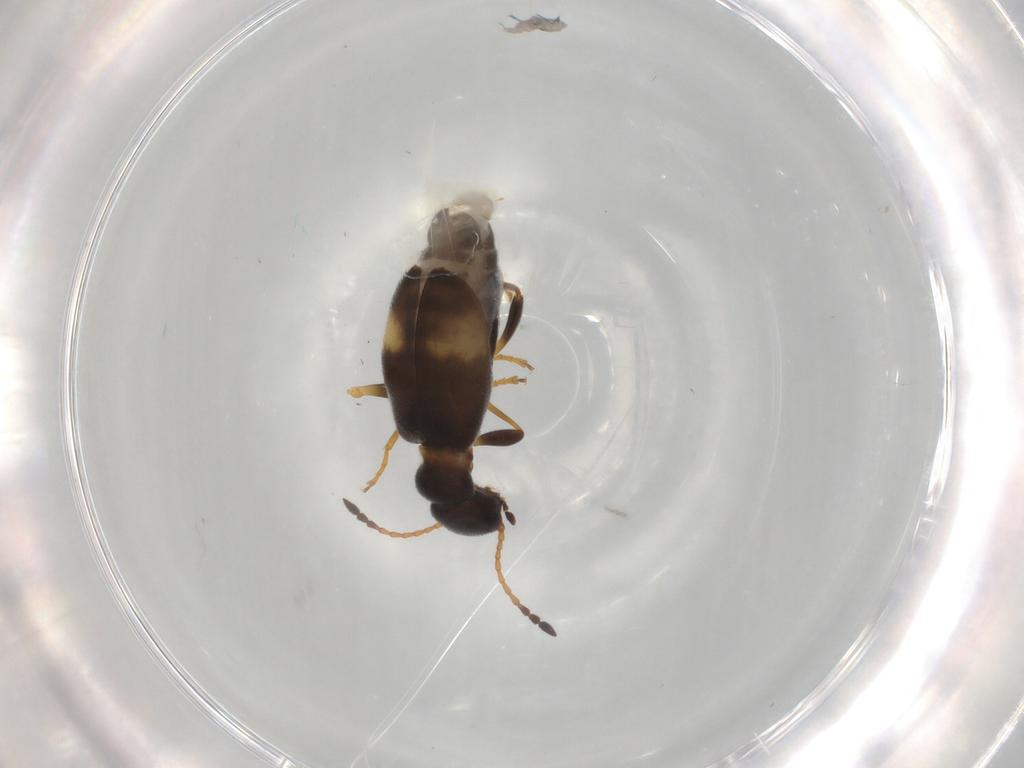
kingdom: Animalia
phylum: Arthropoda
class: Insecta
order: Coleoptera
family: Anthicidae
